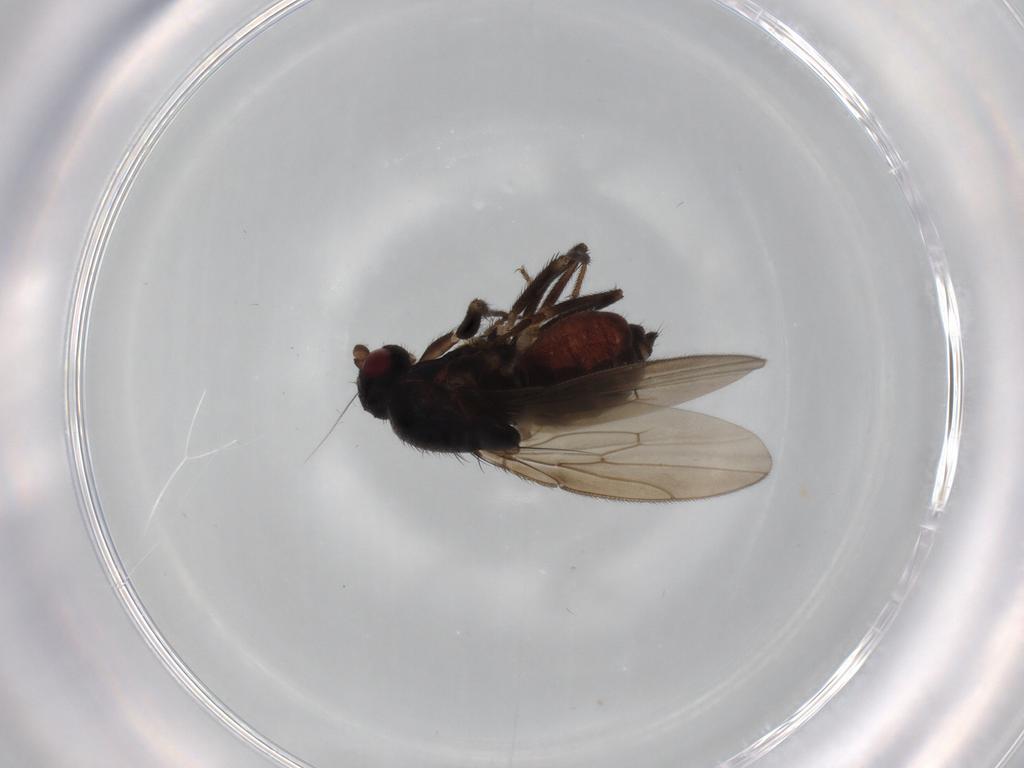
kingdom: Animalia
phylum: Arthropoda
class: Insecta
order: Diptera
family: Sphaeroceridae
